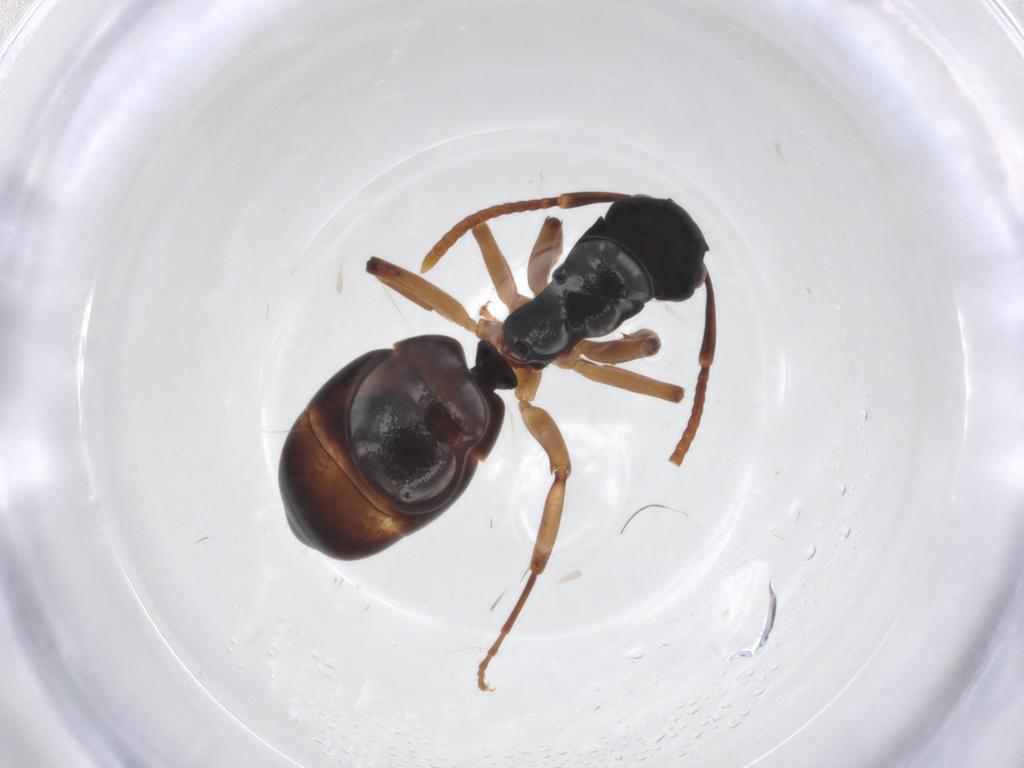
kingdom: Animalia
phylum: Arthropoda
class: Insecta
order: Hymenoptera
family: Formicidae
